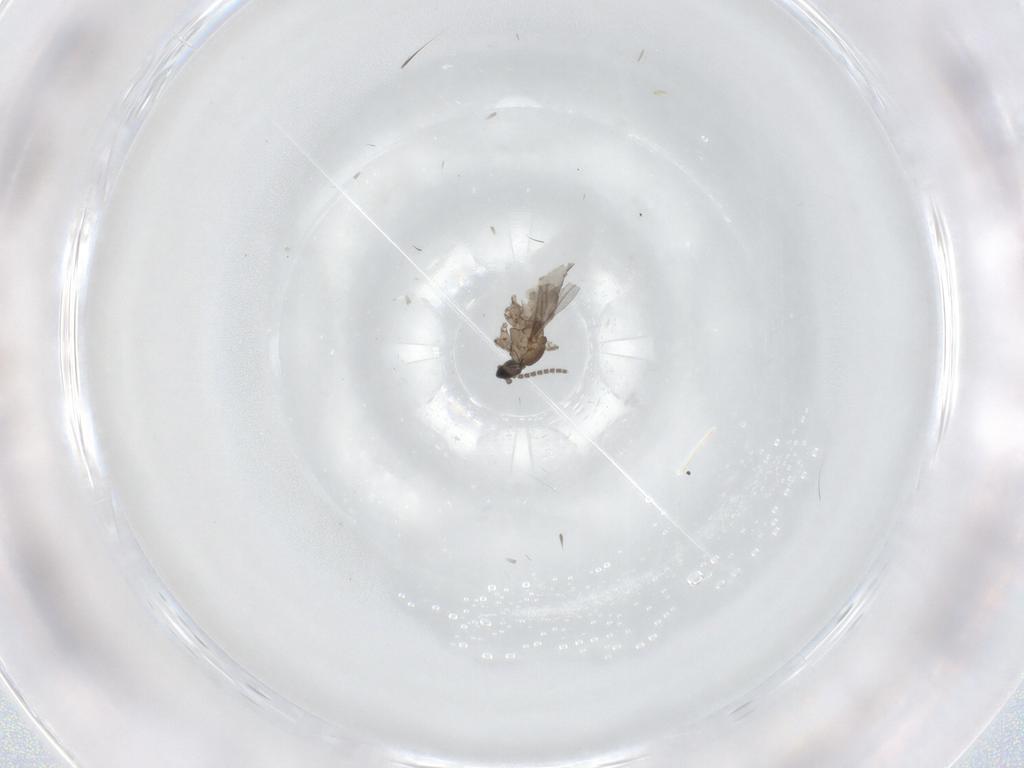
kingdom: Animalia
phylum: Arthropoda
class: Insecta
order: Diptera
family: Sciaridae
